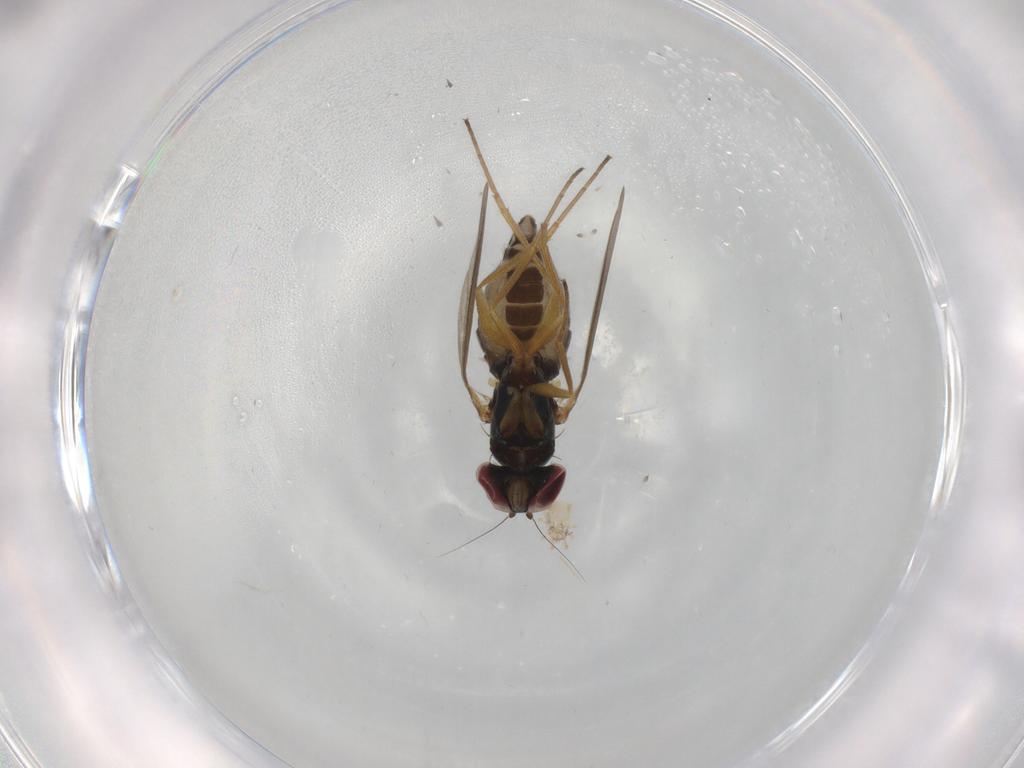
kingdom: Animalia
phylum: Arthropoda
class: Insecta
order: Diptera
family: Dolichopodidae
